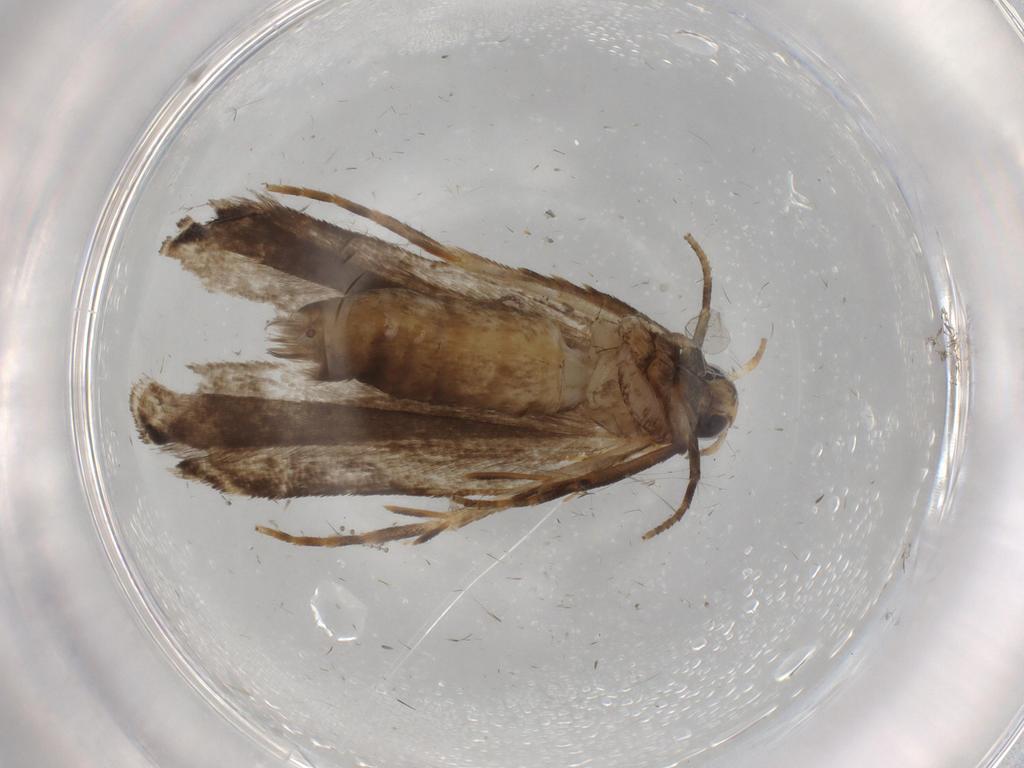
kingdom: Animalia
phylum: Arthropoda
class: Insecta
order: Lepidoptera
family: Gelechiidae
